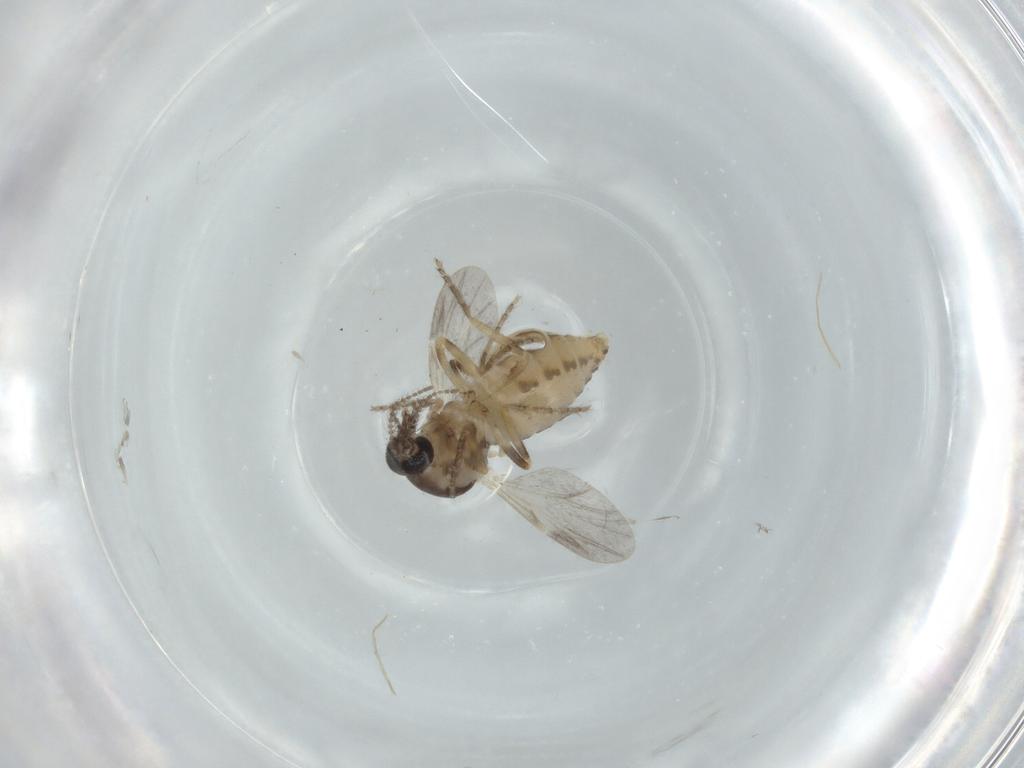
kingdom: Animalia
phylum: Arthropoda
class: Insecta
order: Diptera
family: Ceratopogonidae
